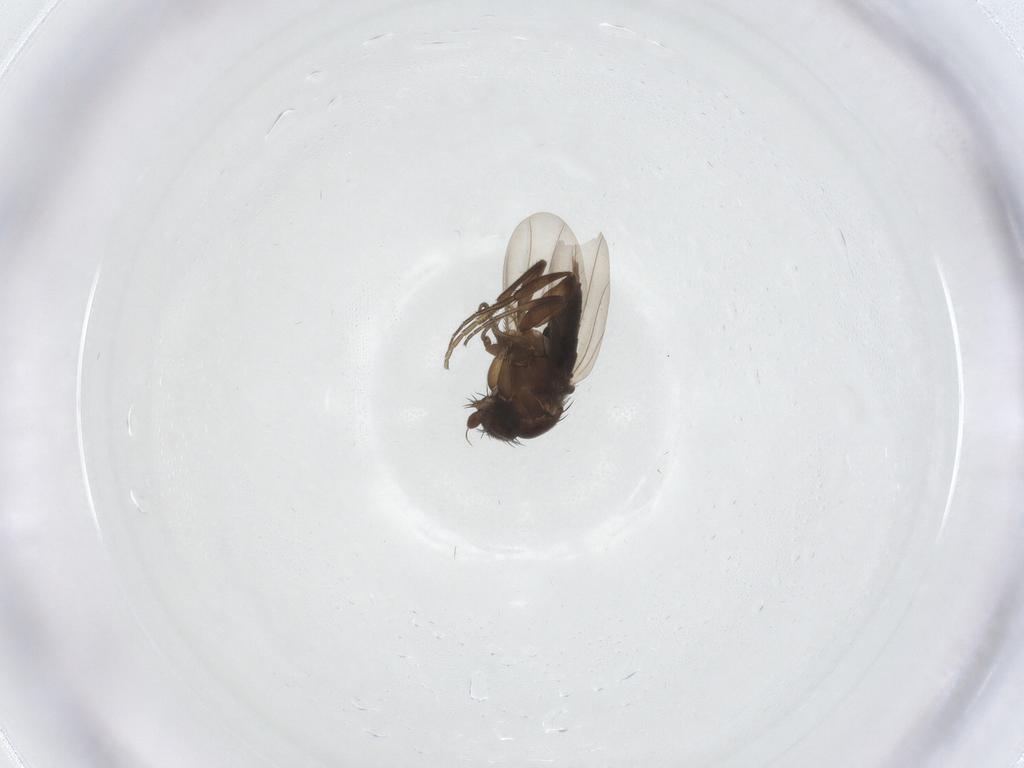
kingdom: Animalia
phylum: Arthropoda
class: Insecta
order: Diptera
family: Phoridae
